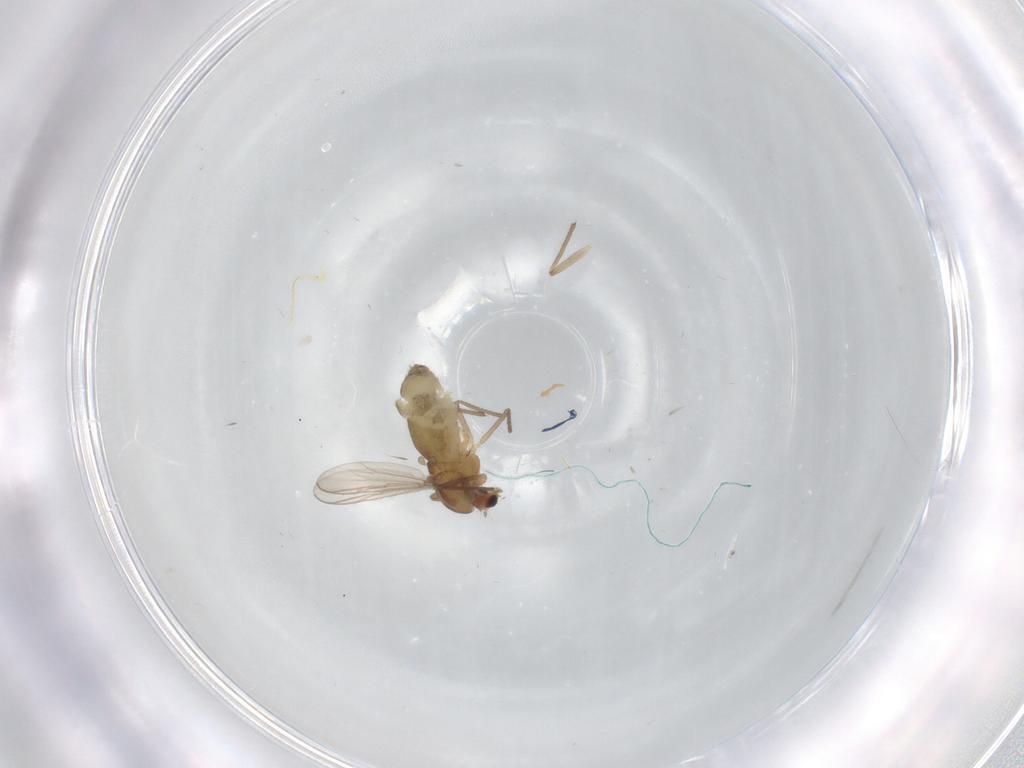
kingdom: Animalia
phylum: Arthropoda
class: Insecta
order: Diptera
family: Chironomidae
